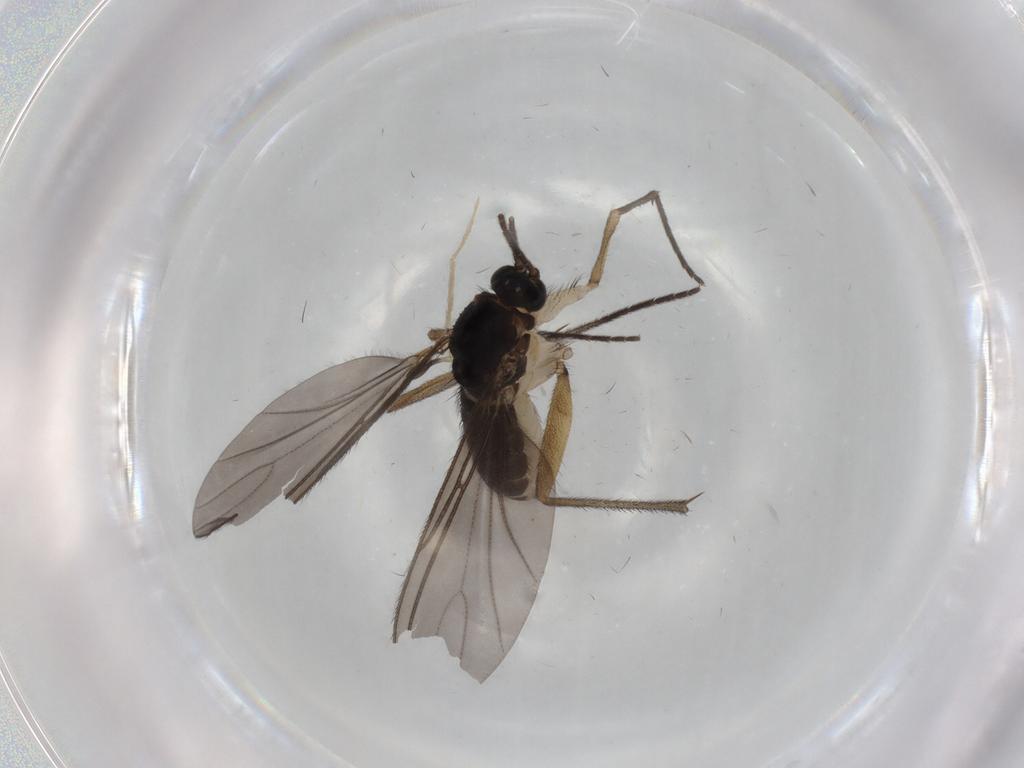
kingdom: Animalia
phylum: Arthropoda
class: Insecta
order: Diptera
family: Sciaridae
